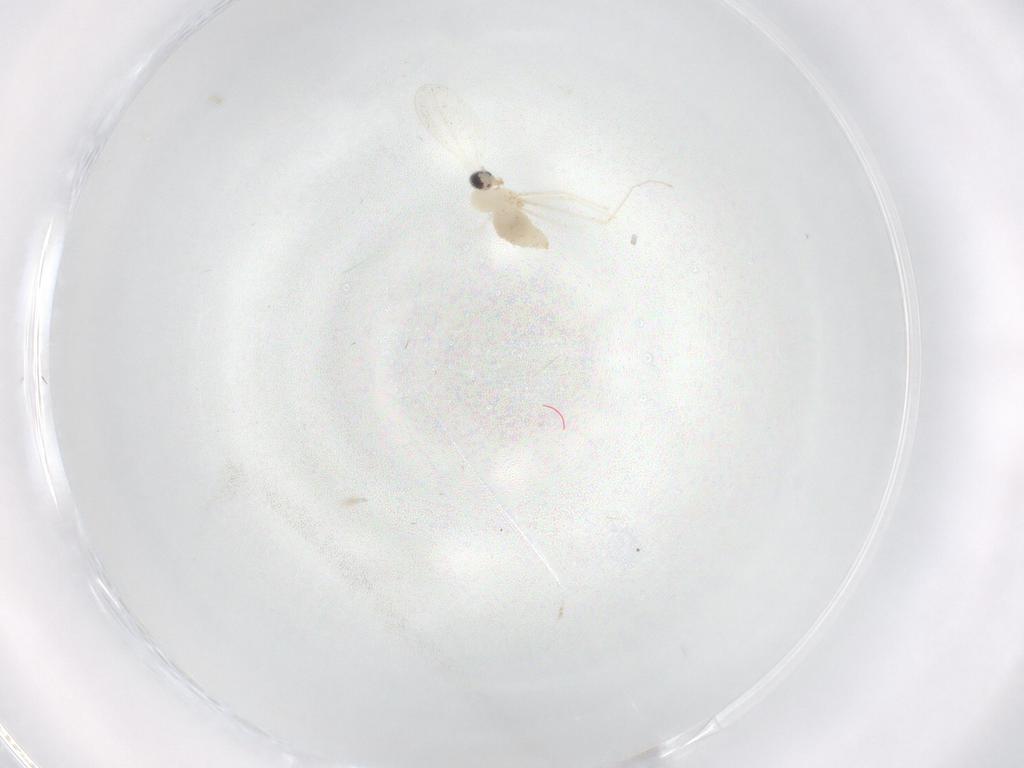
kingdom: Animalia
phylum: Arthropoda
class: Insecta
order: Diptera
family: Cecidomyiidae
